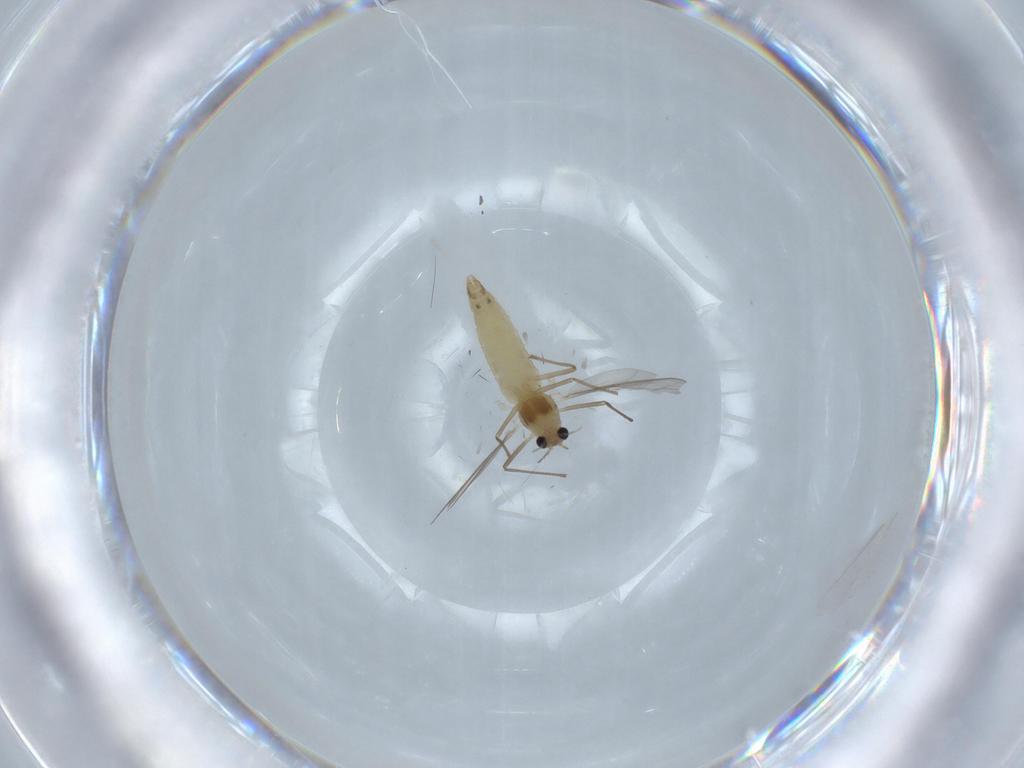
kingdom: Animalia
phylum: Arthropoda
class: Insecta
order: Diptera
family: Chironomidae
